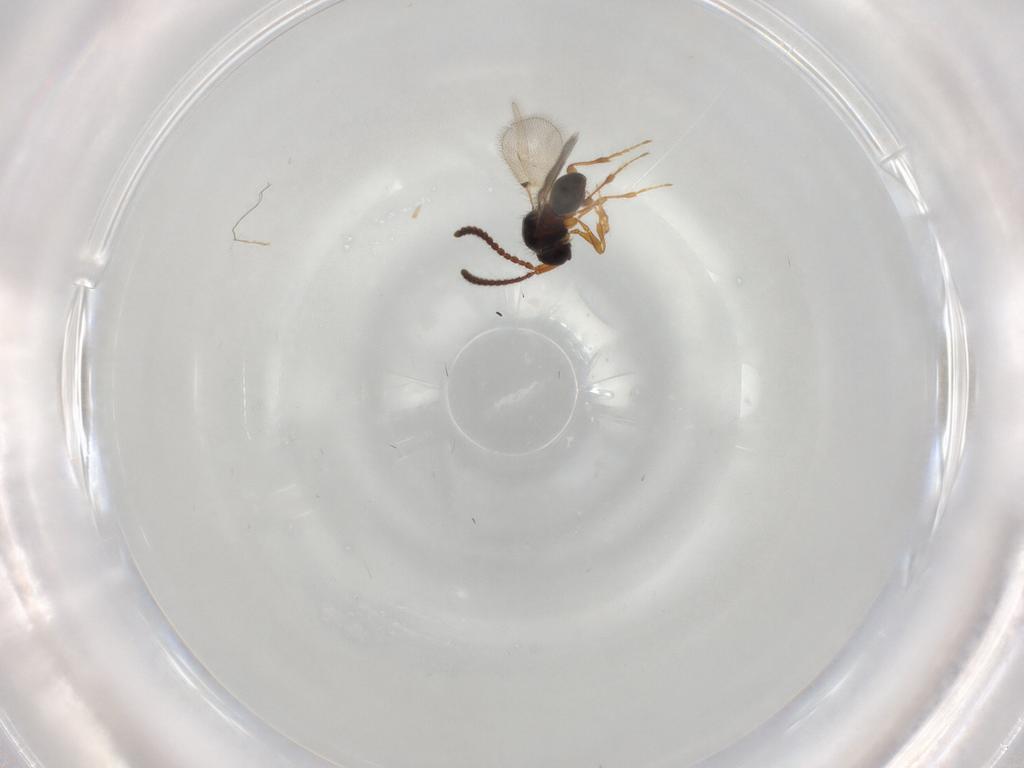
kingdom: Animalia
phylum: Arthropoda
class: Insecta
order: Hymenoptera
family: Diapriidae
